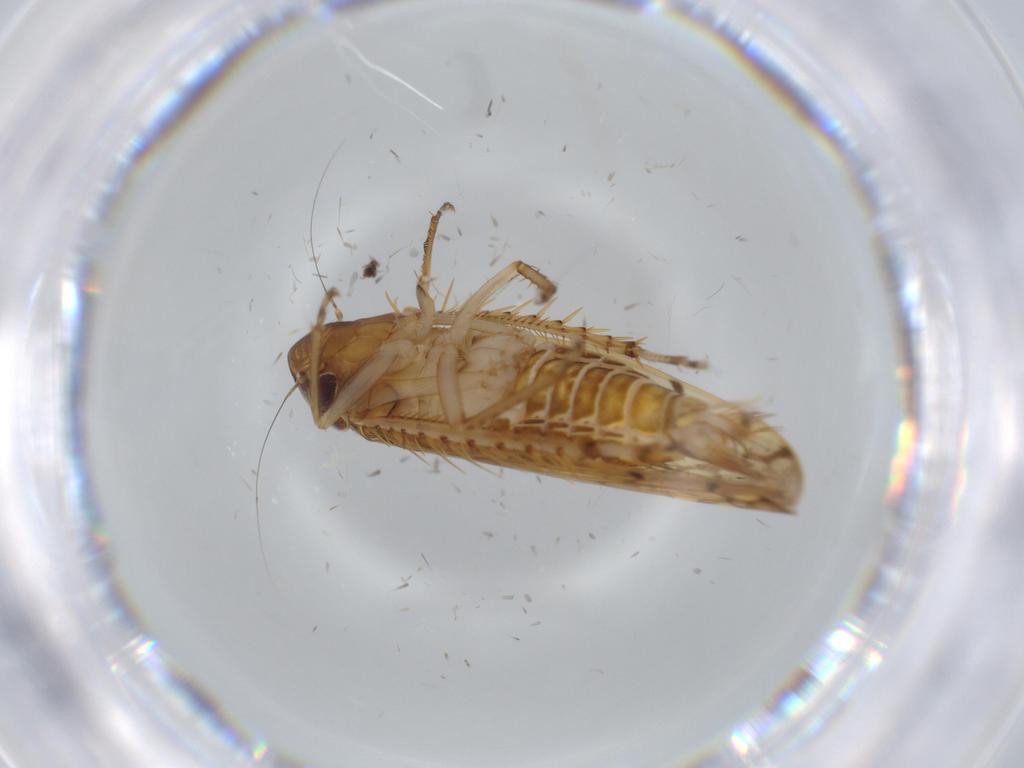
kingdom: Animalia
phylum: Arthropoda
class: Insecta
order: Hemiptera
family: Cicadellidae
